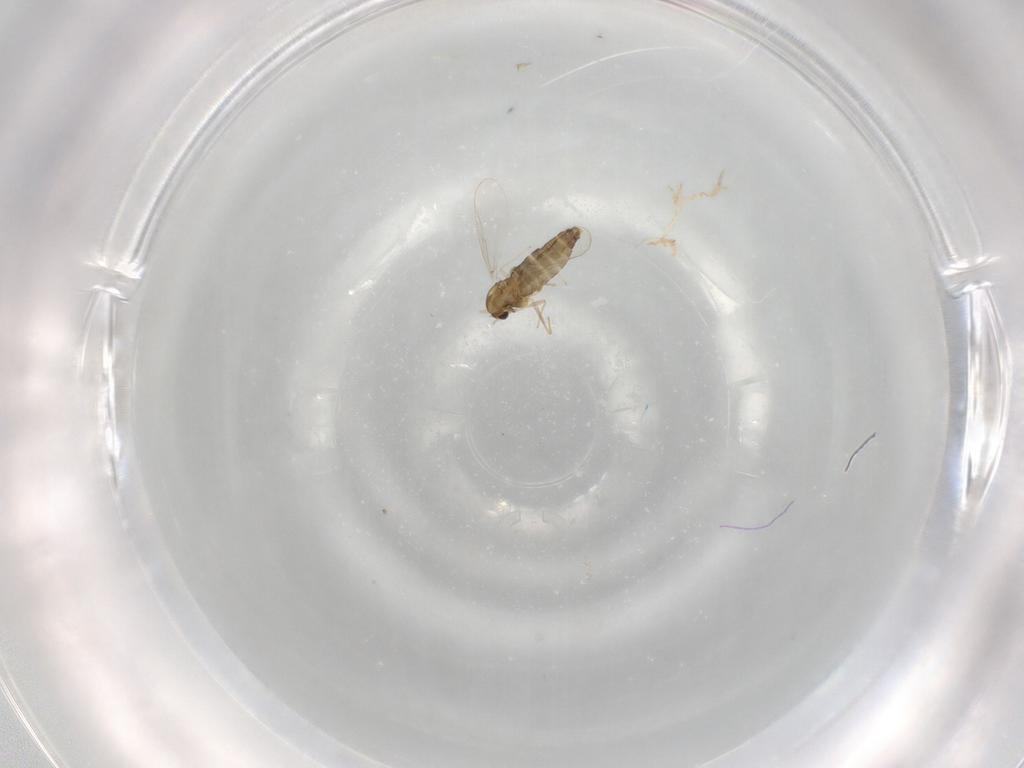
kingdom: Animalia
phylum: Arthropoda
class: Insecta
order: Diptera
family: Chironomidae
